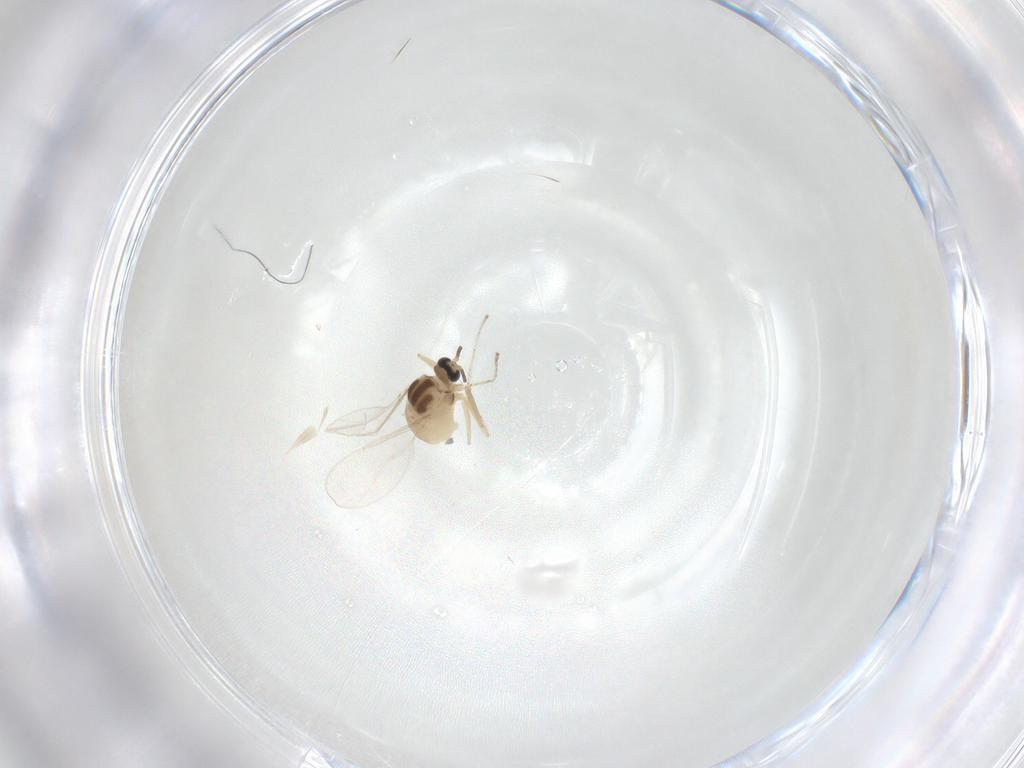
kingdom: Animalia
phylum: Arthropoda
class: Insecta
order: Diptera
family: Cecidomyiidae
